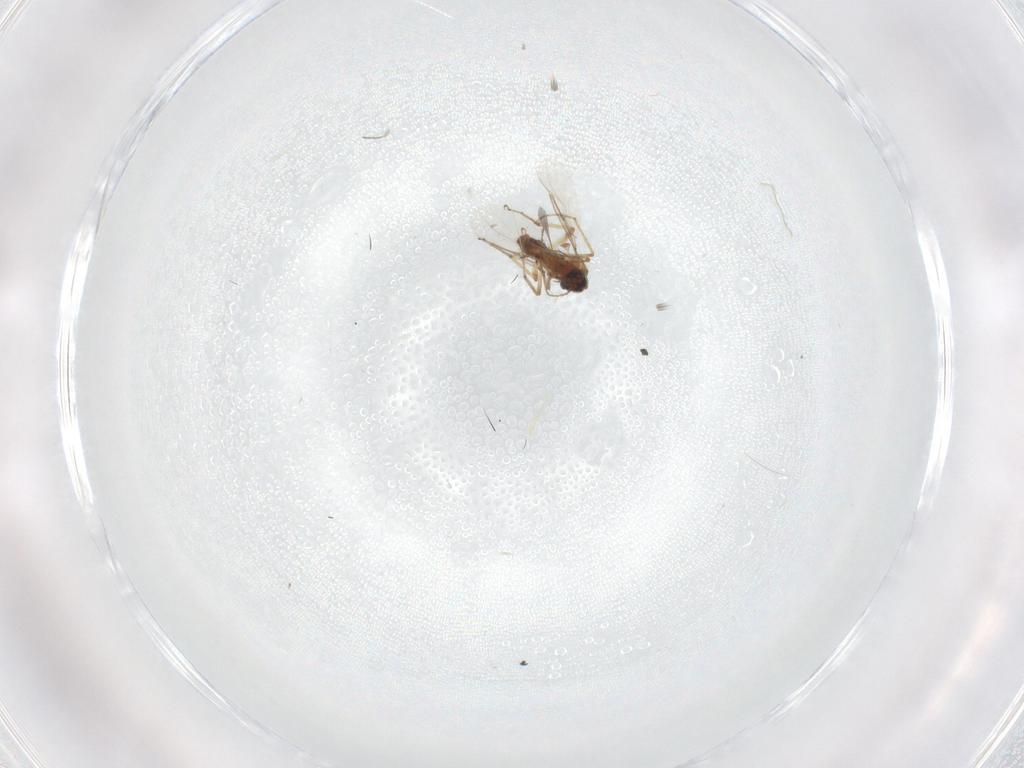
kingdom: Animalia
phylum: Arthropoda
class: Insecta
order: Diptera
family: Cecidomyiidae
